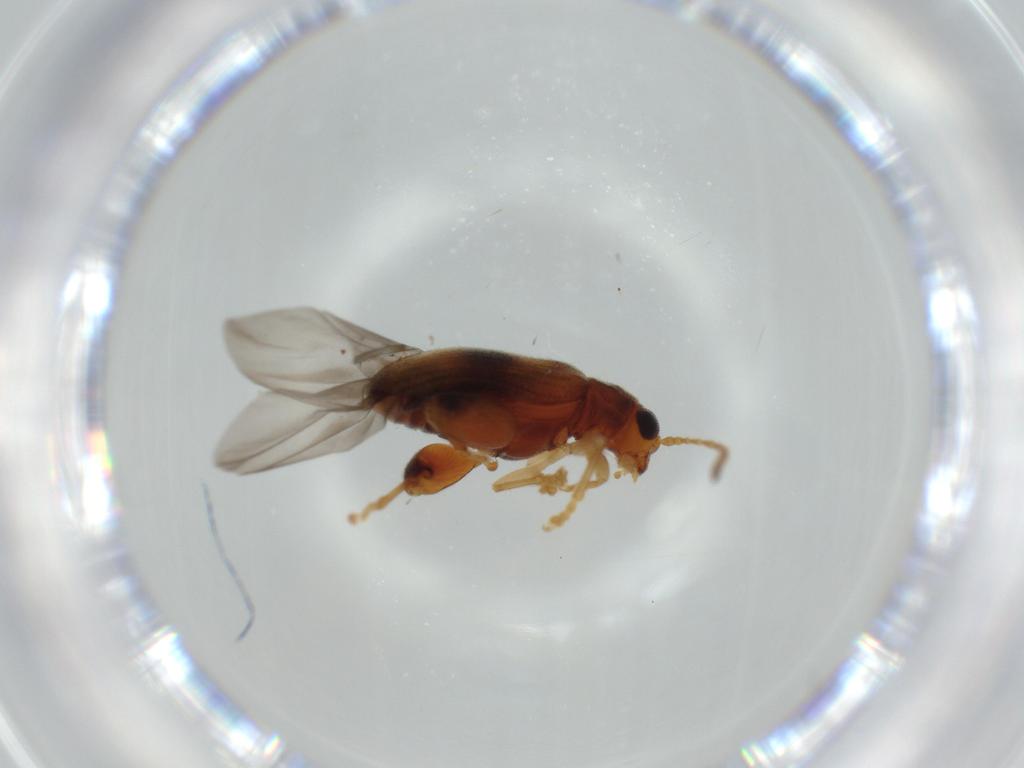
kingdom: Animalia
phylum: Arthropoda
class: Insecta
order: Coleoptera
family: Chrysomelidae
